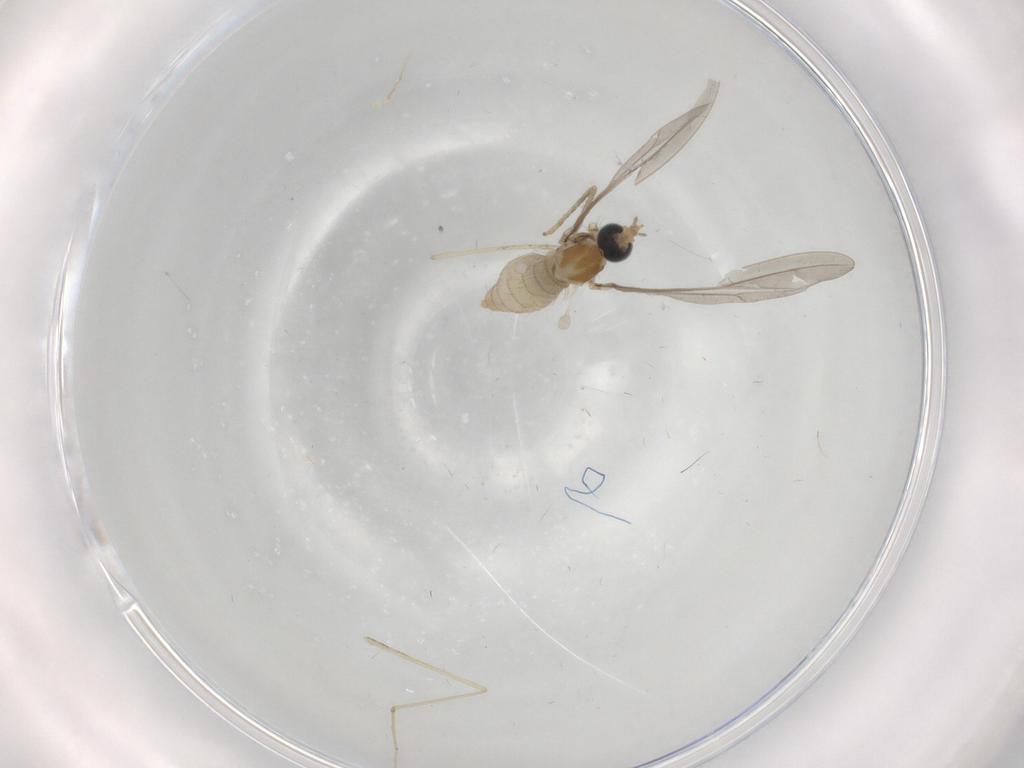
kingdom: Animalia
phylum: Arthropoda
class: Insecta
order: Diptera
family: Cecidomyiidae
